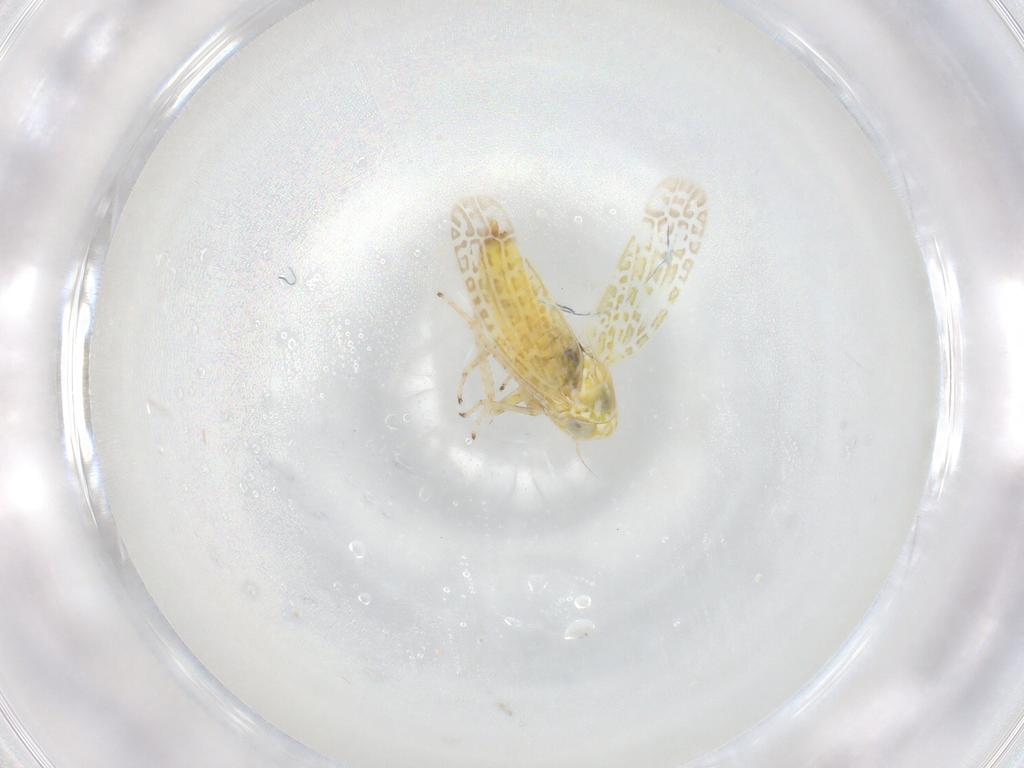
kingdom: Animalia
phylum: Arthropoda
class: Insecta
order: Hemiptera
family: Cicadellidae
